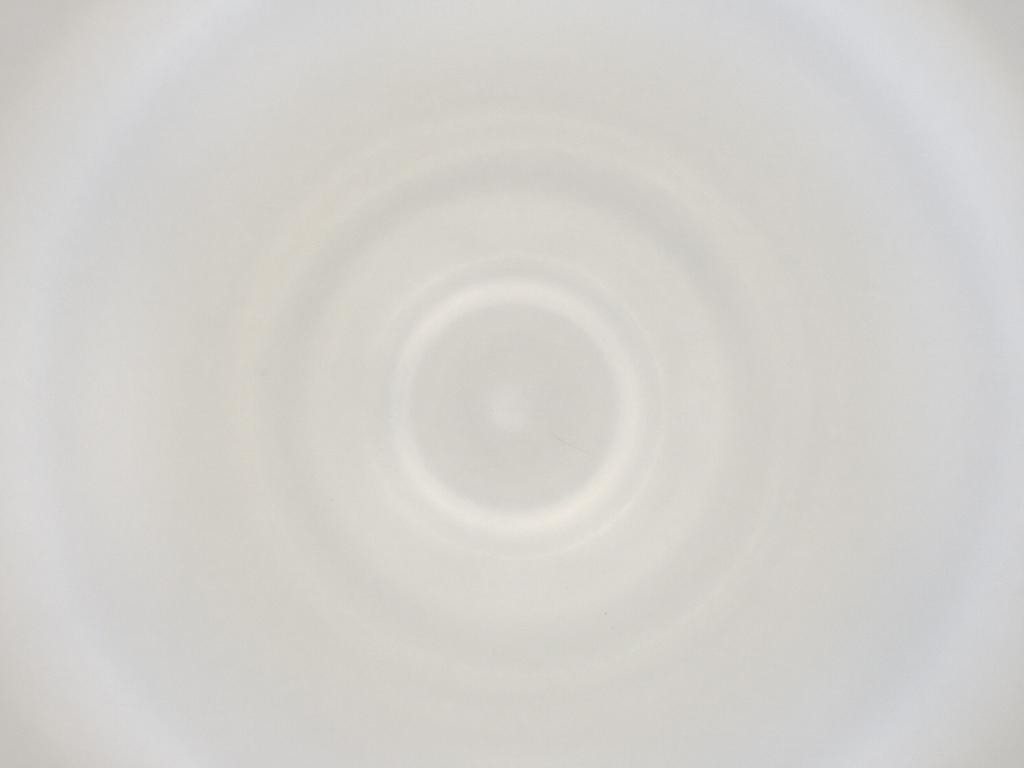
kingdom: Animalia
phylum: Arthropoda
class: Insecta
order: Diptera
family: Cecidomyiidae
